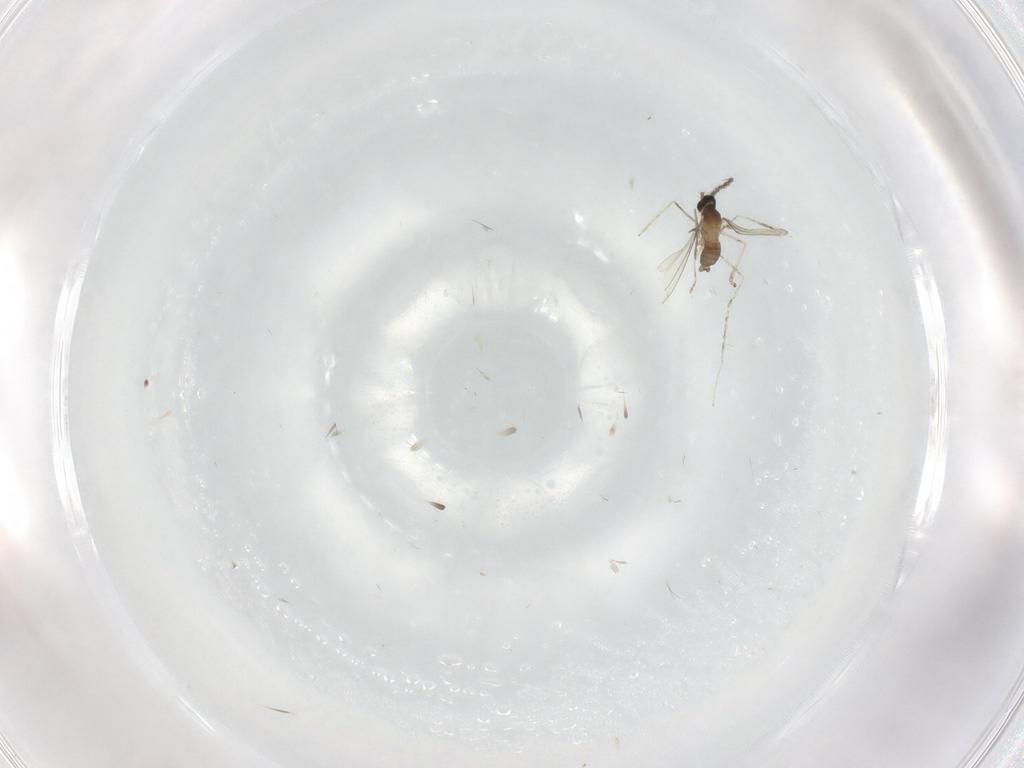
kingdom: Animalia
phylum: Arthropoda
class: Insecta
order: Diptera
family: Cecidomyiidae
